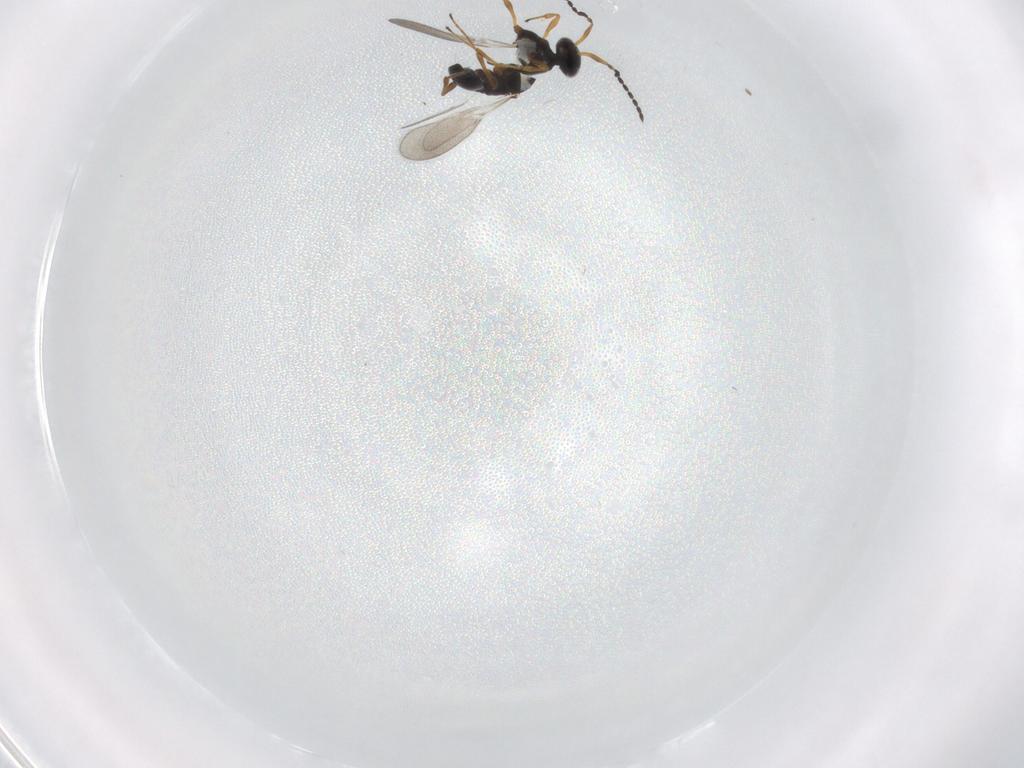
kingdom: Animalia
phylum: Arthropoda
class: Insecta
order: Hymenoptera
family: Platygastridae
